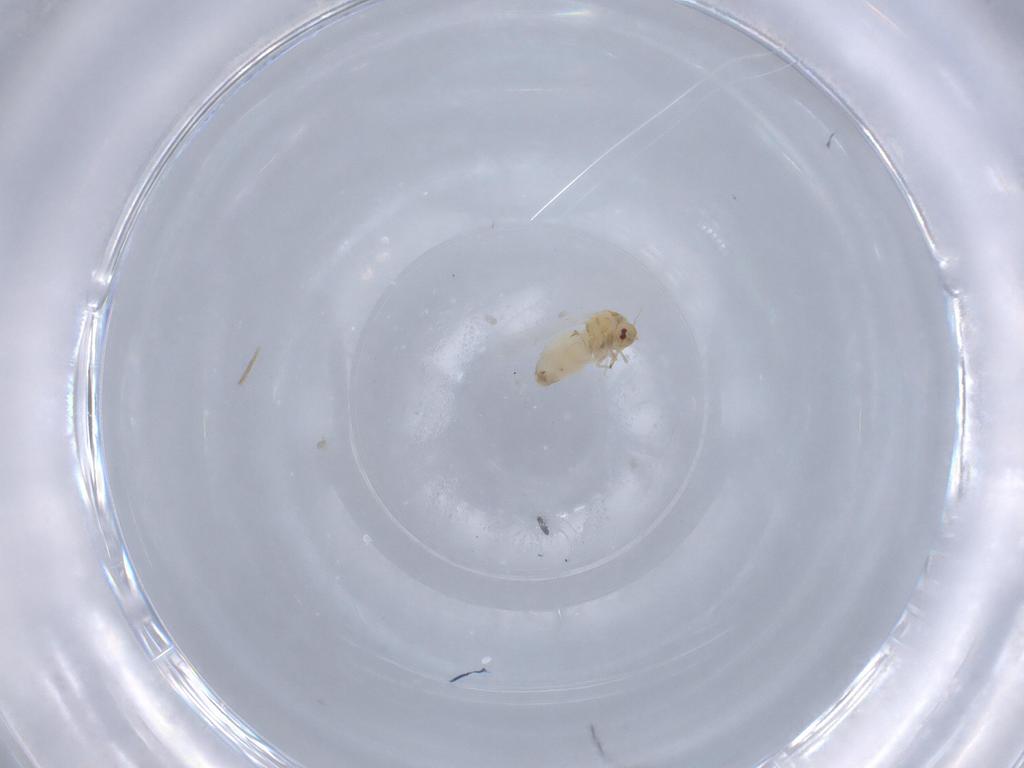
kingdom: Animalia
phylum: Arthropoda
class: Insecta
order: Hemiptera
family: Aleyrodidae
